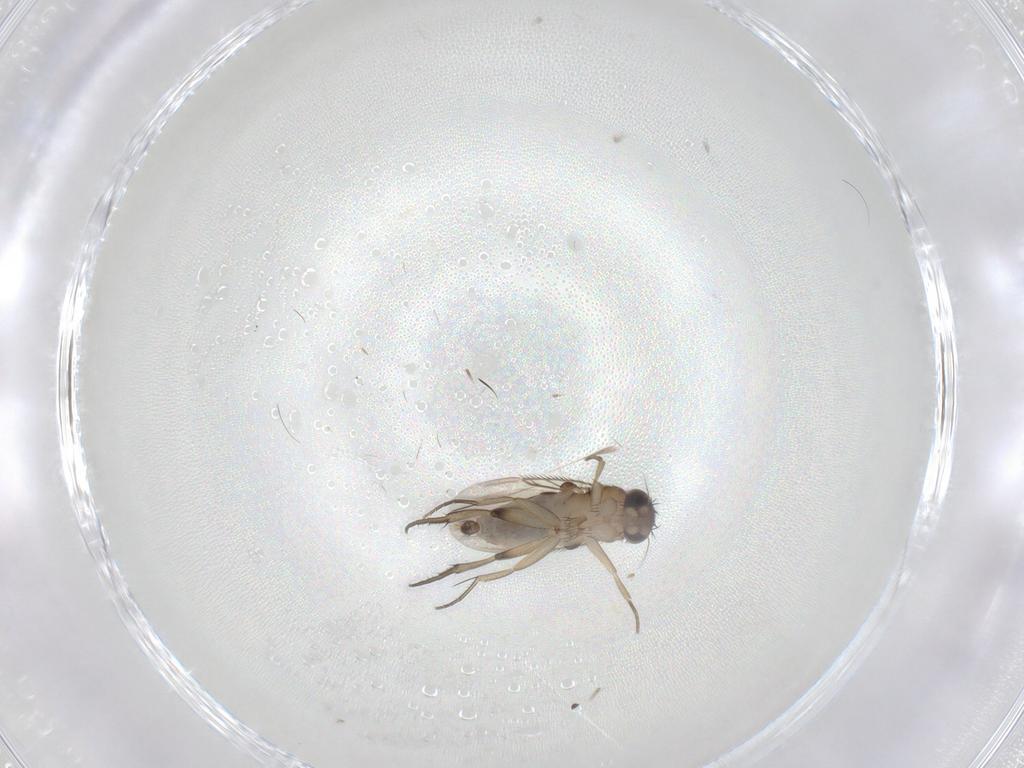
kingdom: Animalia
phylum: Arthropoda
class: Insecta
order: Diptera
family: Phoridae
